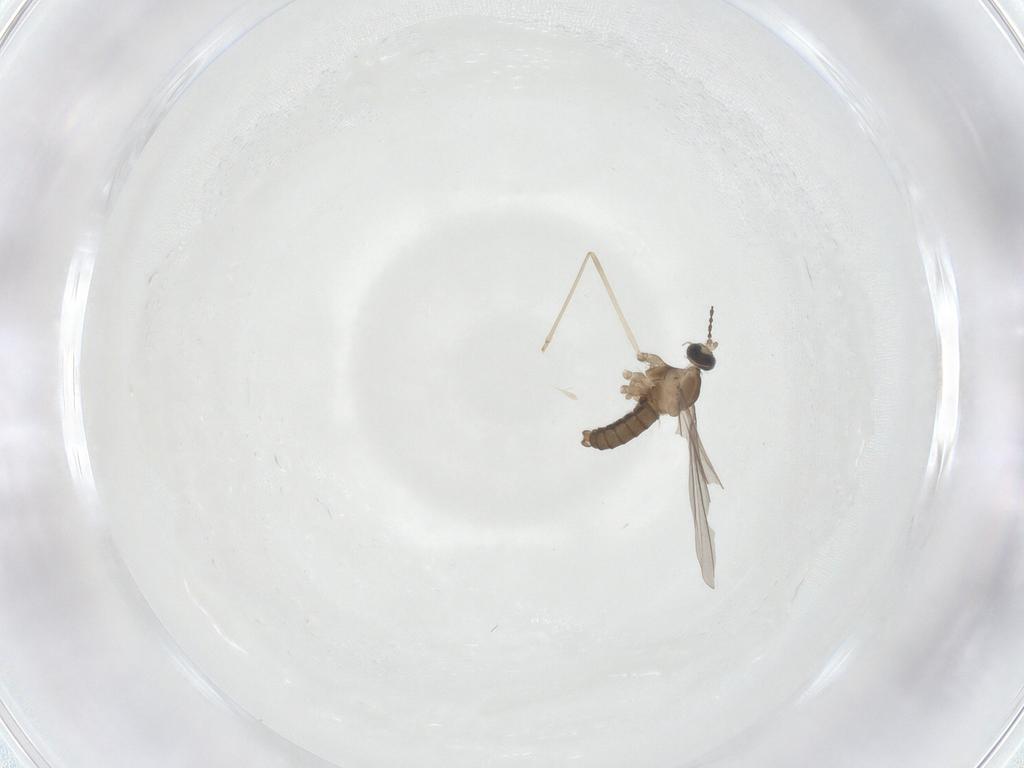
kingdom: Animalia
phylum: Arthropoda
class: Insecta
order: Diptera
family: Cecidomyiidae
